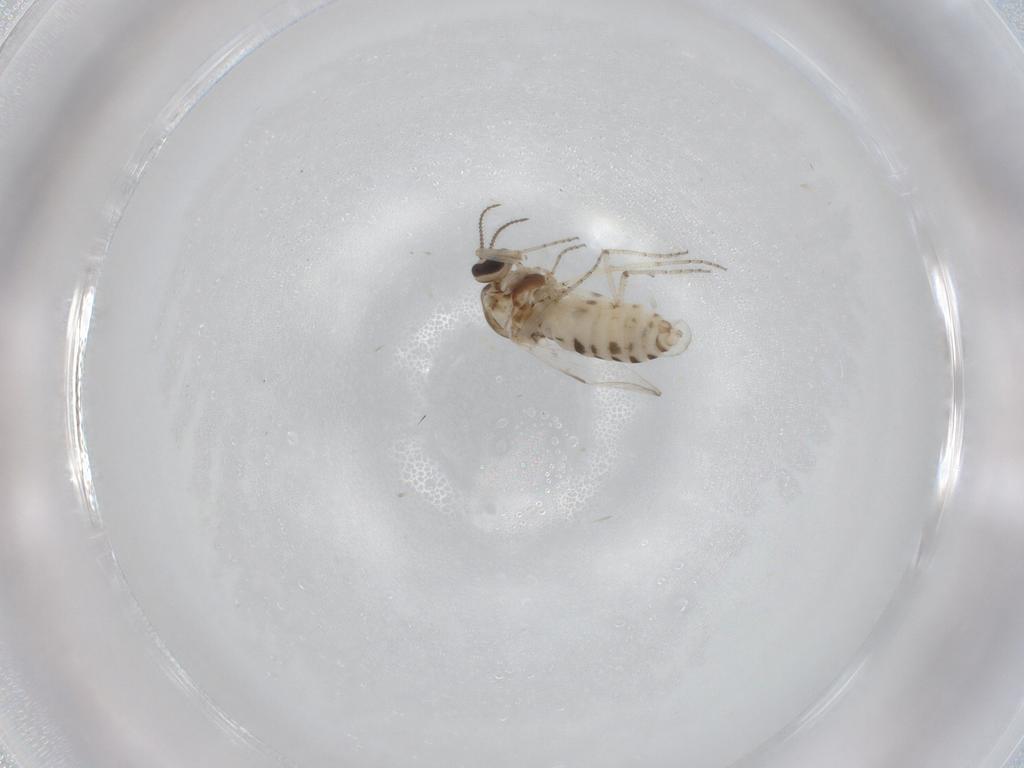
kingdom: Animalia
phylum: Arthropoda
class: Insecta
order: Diptera
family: Ceratopogonidae
